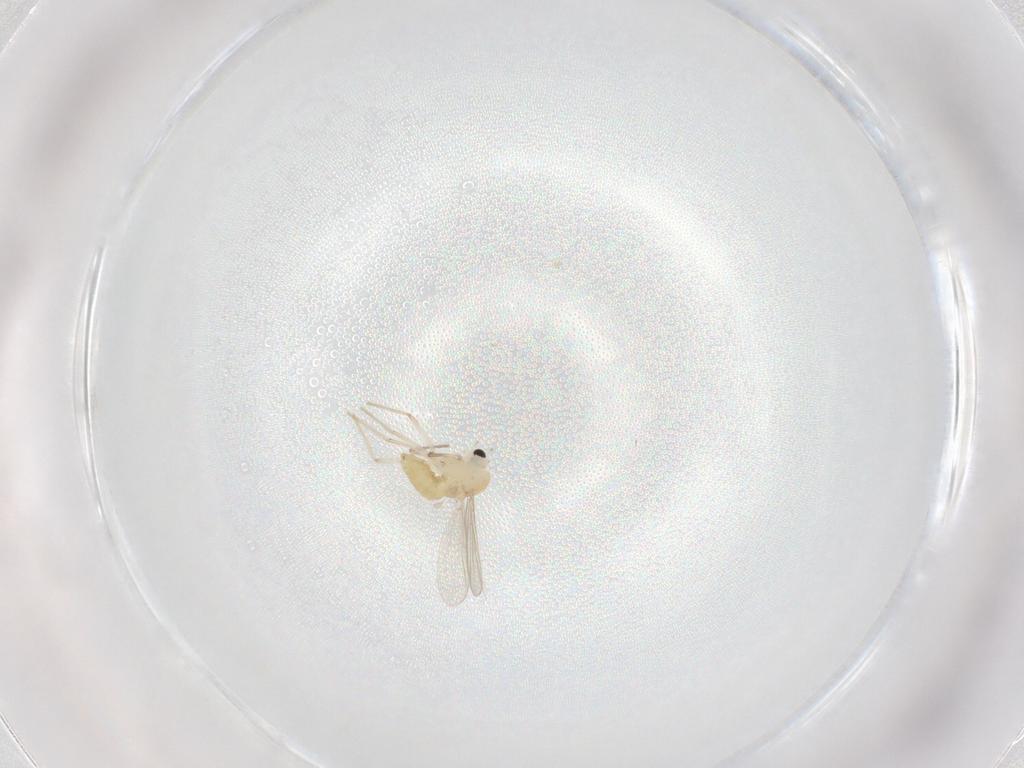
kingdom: Animalia
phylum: Arthropoda
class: Insecta
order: Diptera
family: Chironomidae
